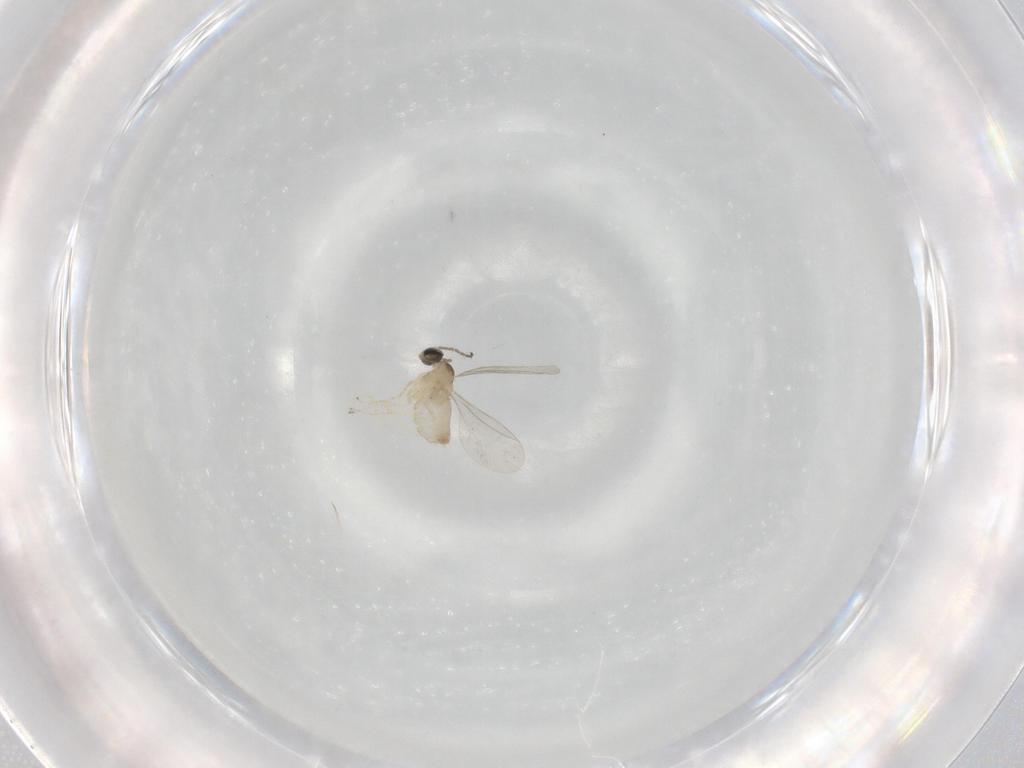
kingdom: Animalia
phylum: Arthropoda
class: Insecta
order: Diptera
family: Cecidomyiidae
